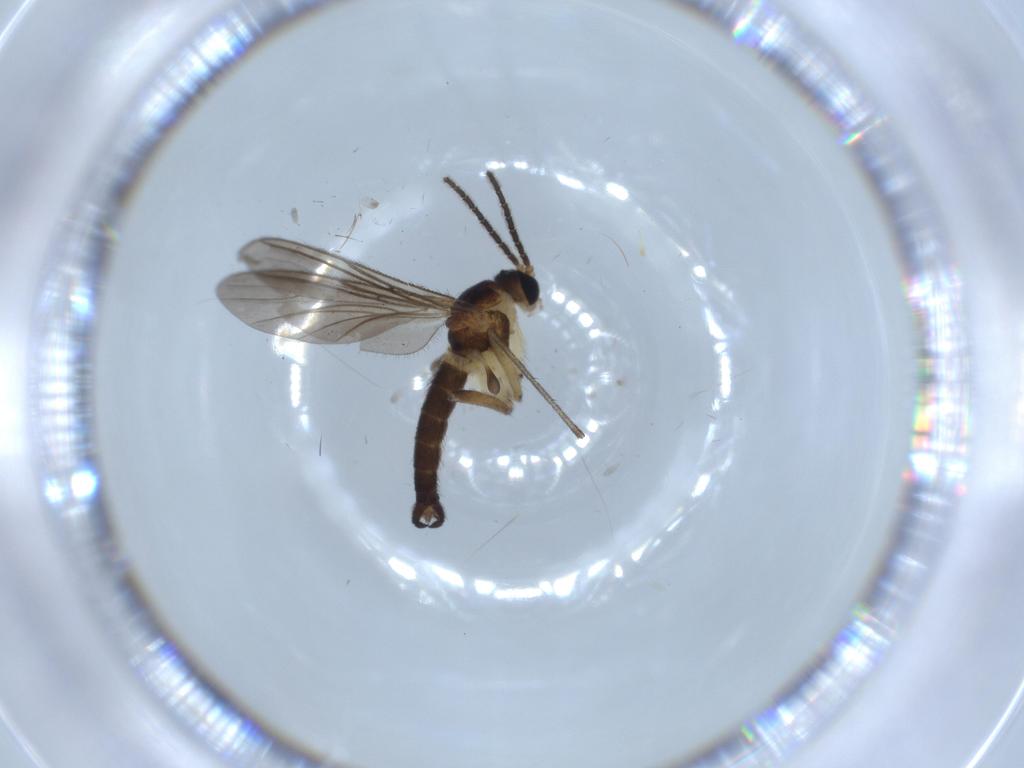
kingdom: Animalia
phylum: Arthropoda
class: Insecta
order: Diptera
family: Sciaridae
